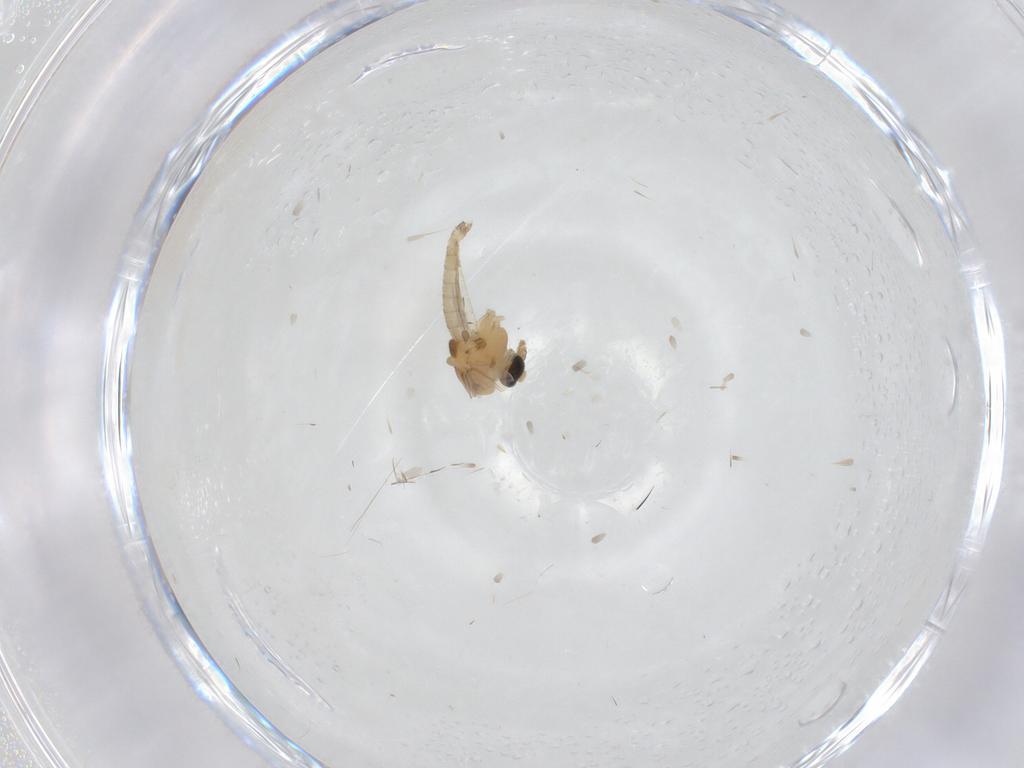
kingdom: Animalia
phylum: Arthropoda
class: Insecta
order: Diptera
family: Chironomidae
